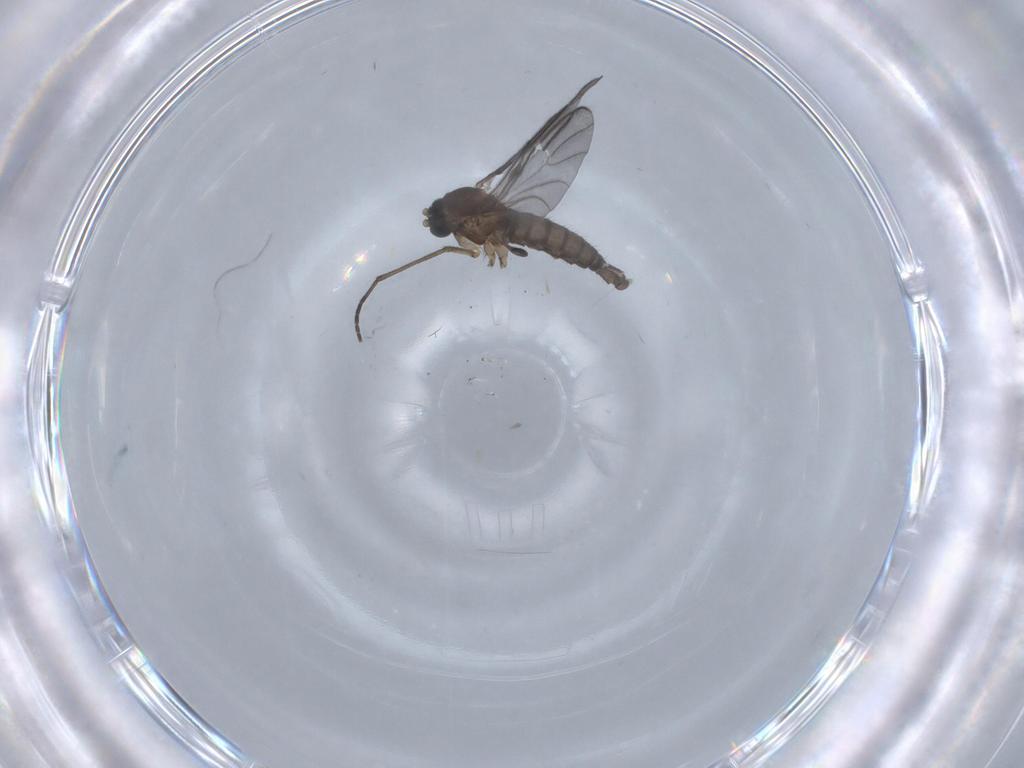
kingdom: Animalia
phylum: Arthropoda
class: Insecta
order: Diptera
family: Sciaridae
